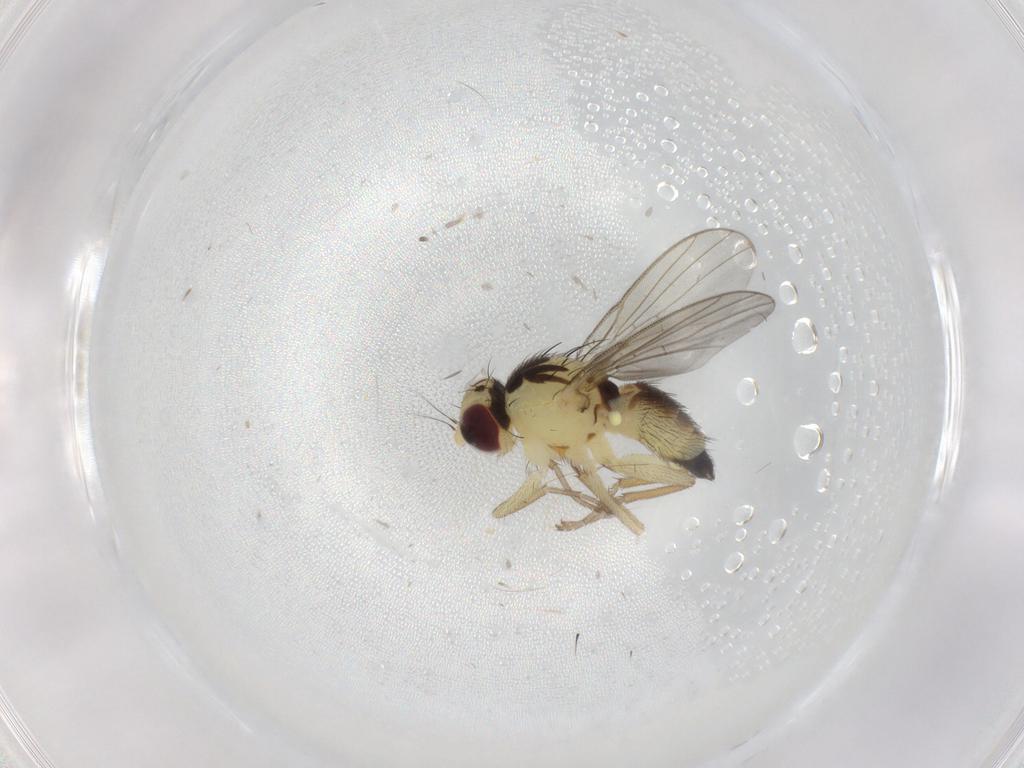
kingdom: Animalia
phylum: Arthropoda
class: Insecta
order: Diptera
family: Agromyzidae
